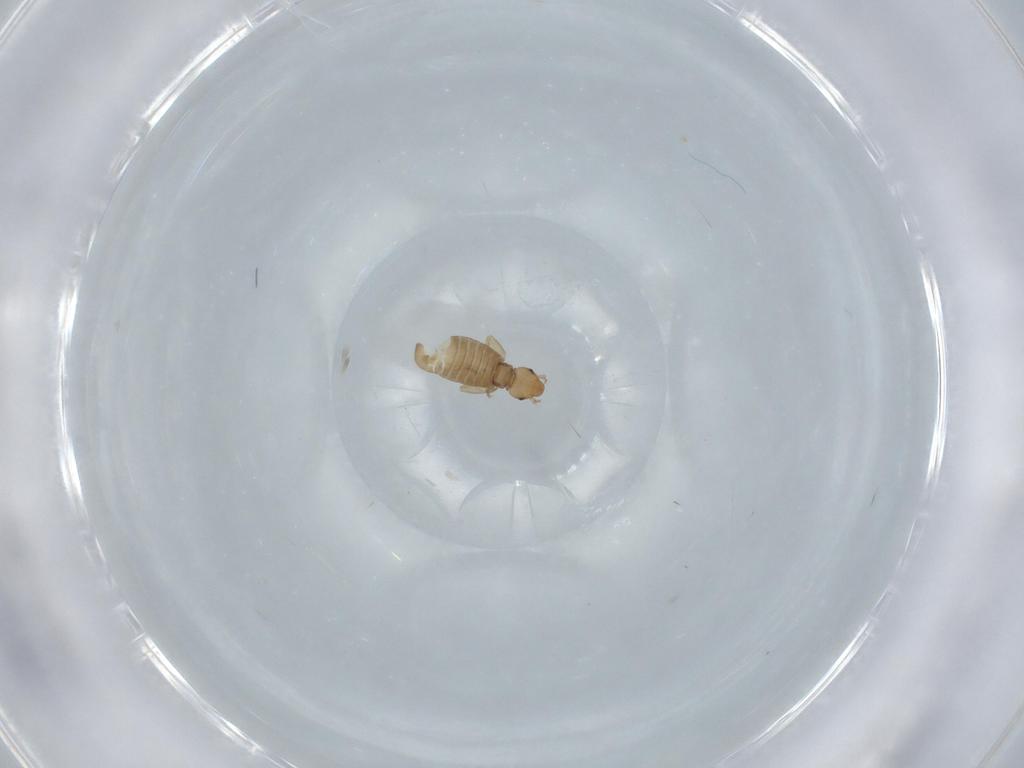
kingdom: Animalia
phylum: Arthropoda
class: Insecta
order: Psocodea
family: Liposcelididae
